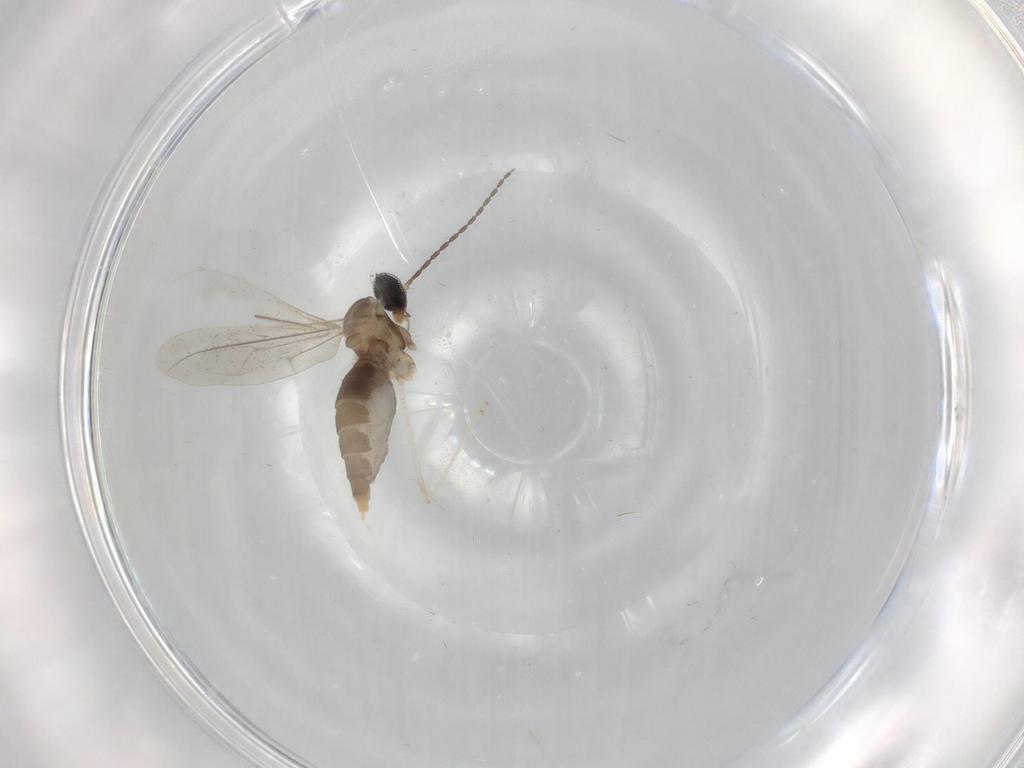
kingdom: Animalia
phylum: Arthropoda
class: Insecta
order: Diptera
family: Cecidomyiidae
